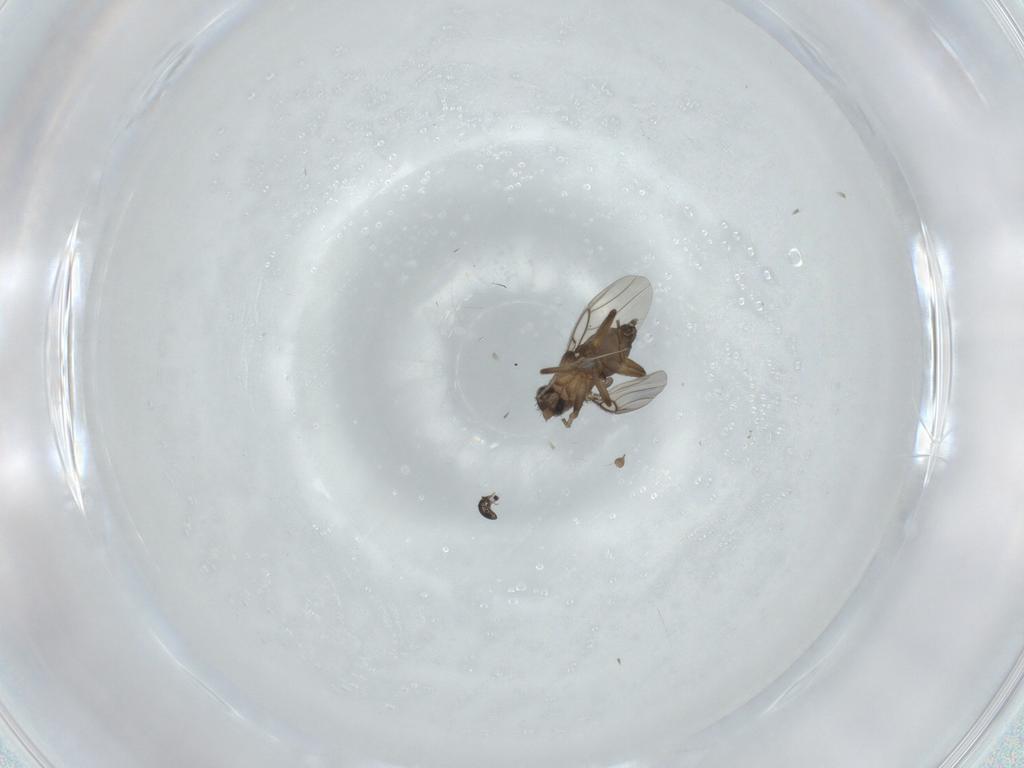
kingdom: Animalia
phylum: Arthropoda
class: Insecta
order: Diptera
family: Phoridae
